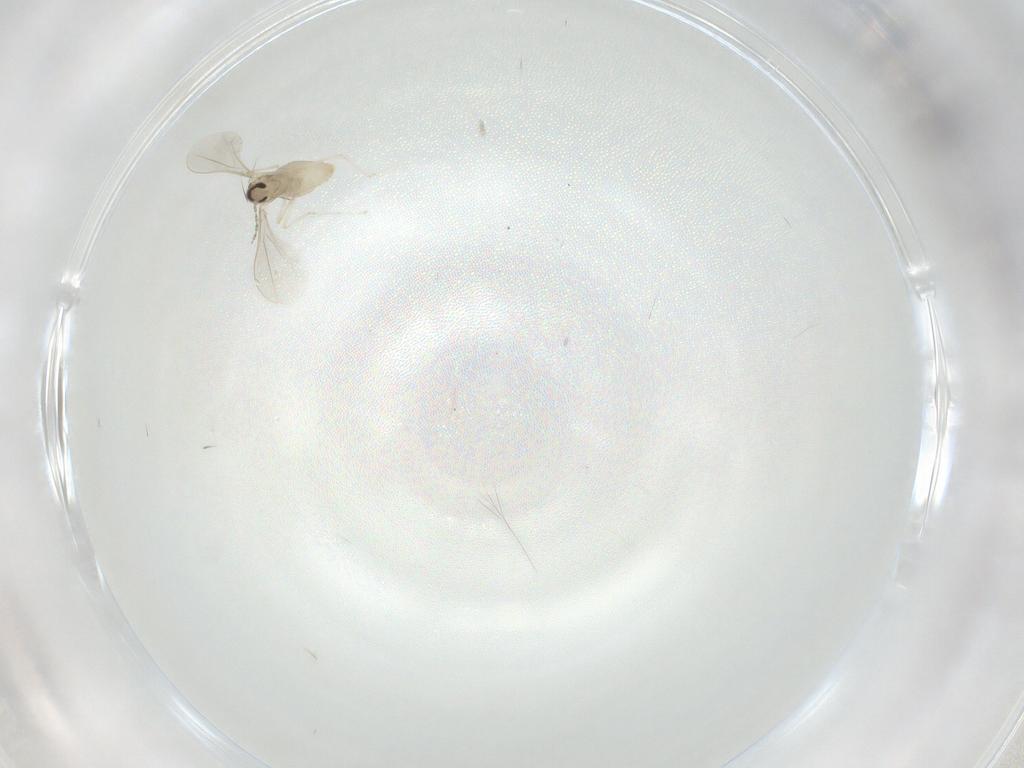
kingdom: Animalia
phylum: Arthropoda
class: Insecta
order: Diptera
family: Cecidomyiidae
